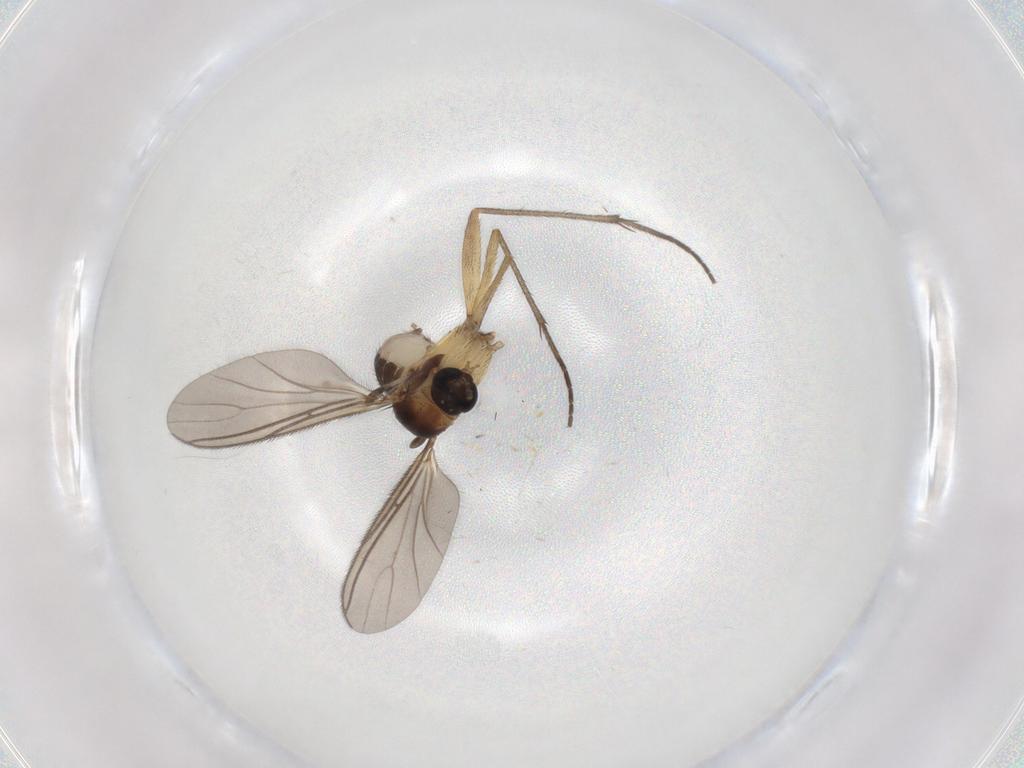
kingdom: Animalia
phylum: Arthropoda
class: Insecta
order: Diptera
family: Sciaridae
